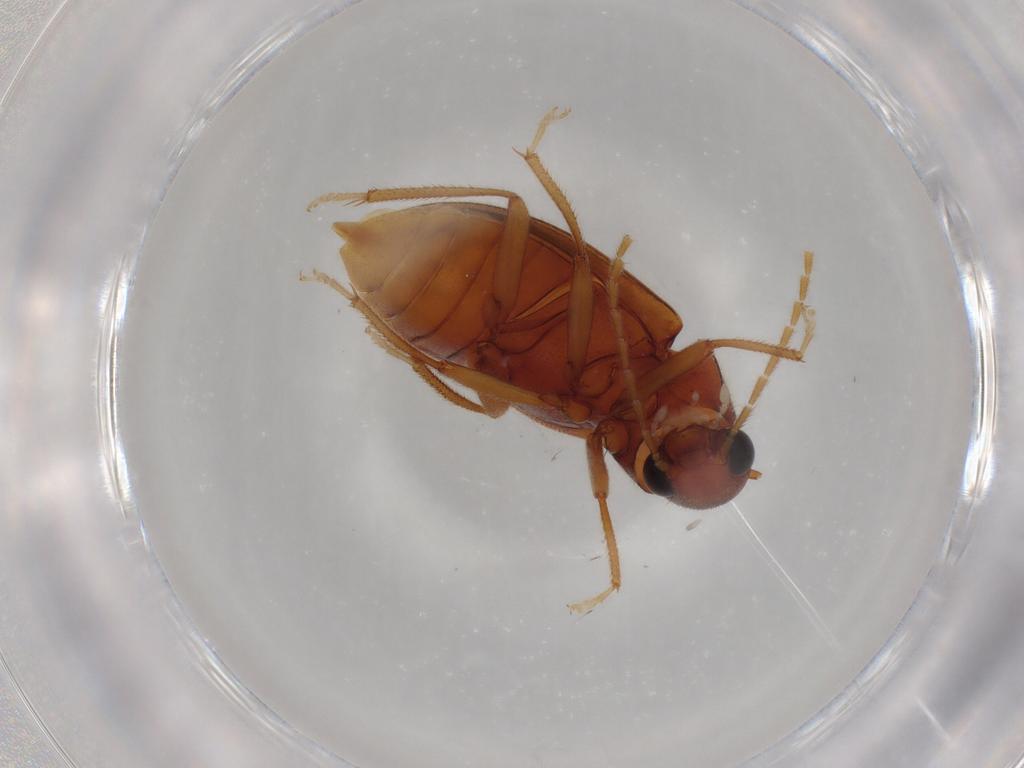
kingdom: Animalia
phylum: Arthropoda
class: Insecta
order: Coleoptera
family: Ptilodactylidae
